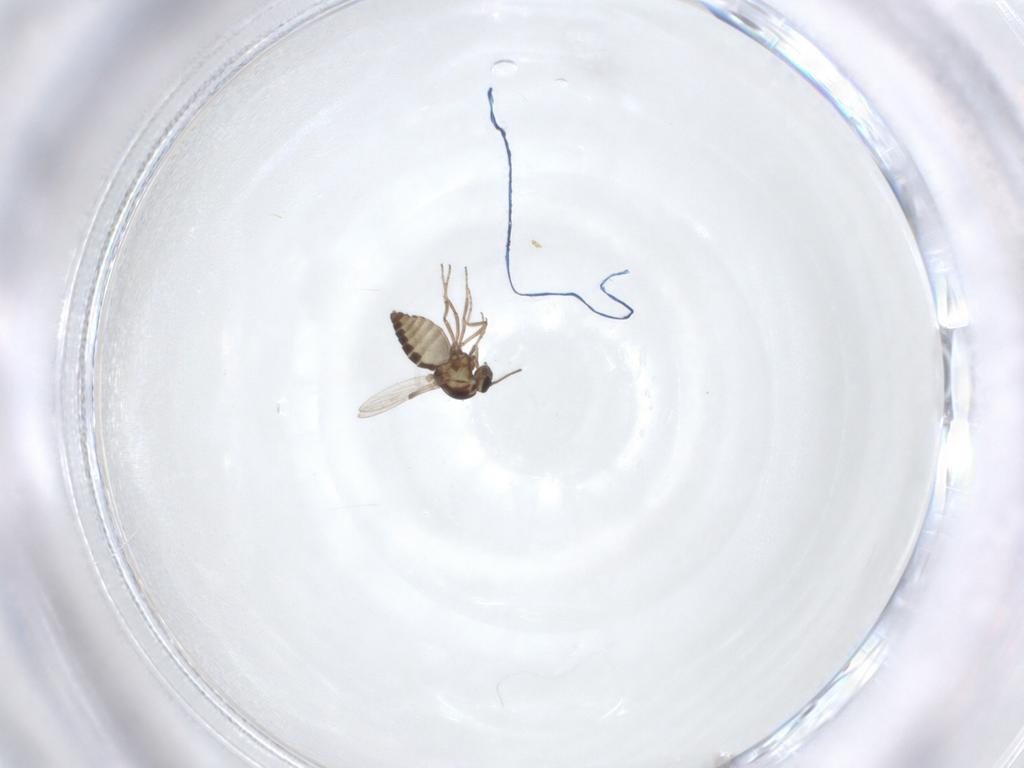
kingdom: Animalia
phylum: Arthropoda
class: Insecta
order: Diptera
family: Ceratopogonidae
